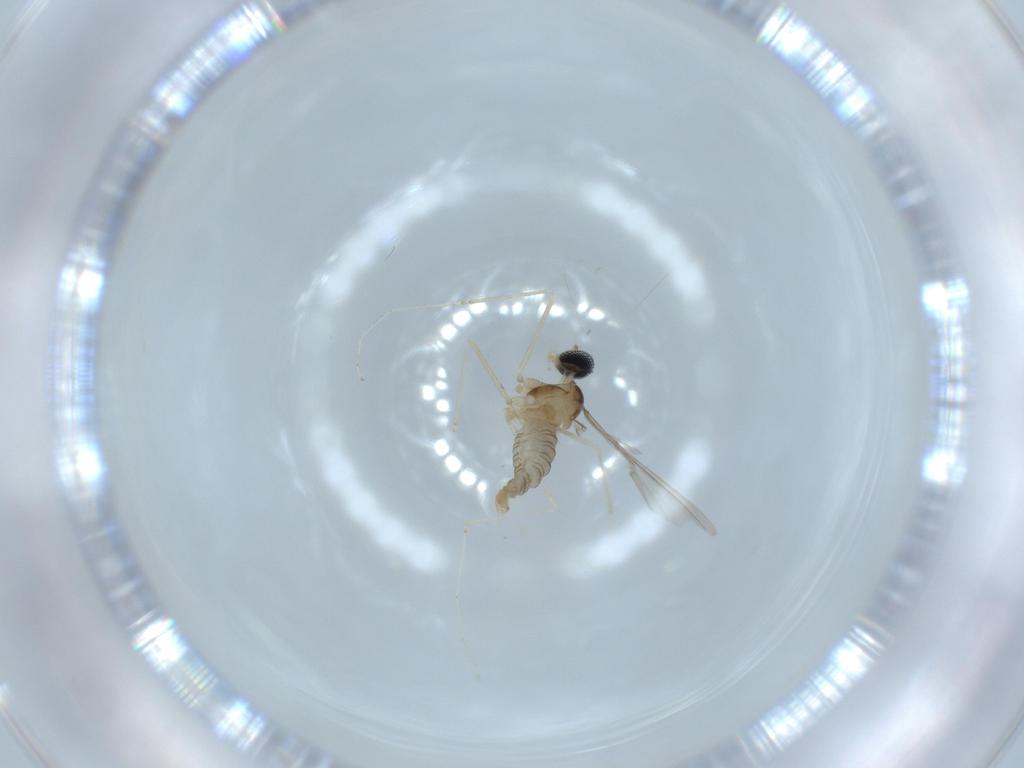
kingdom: Animalia
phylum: Arthropoda
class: Insecta
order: Diptera
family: Cecidomyiidae
